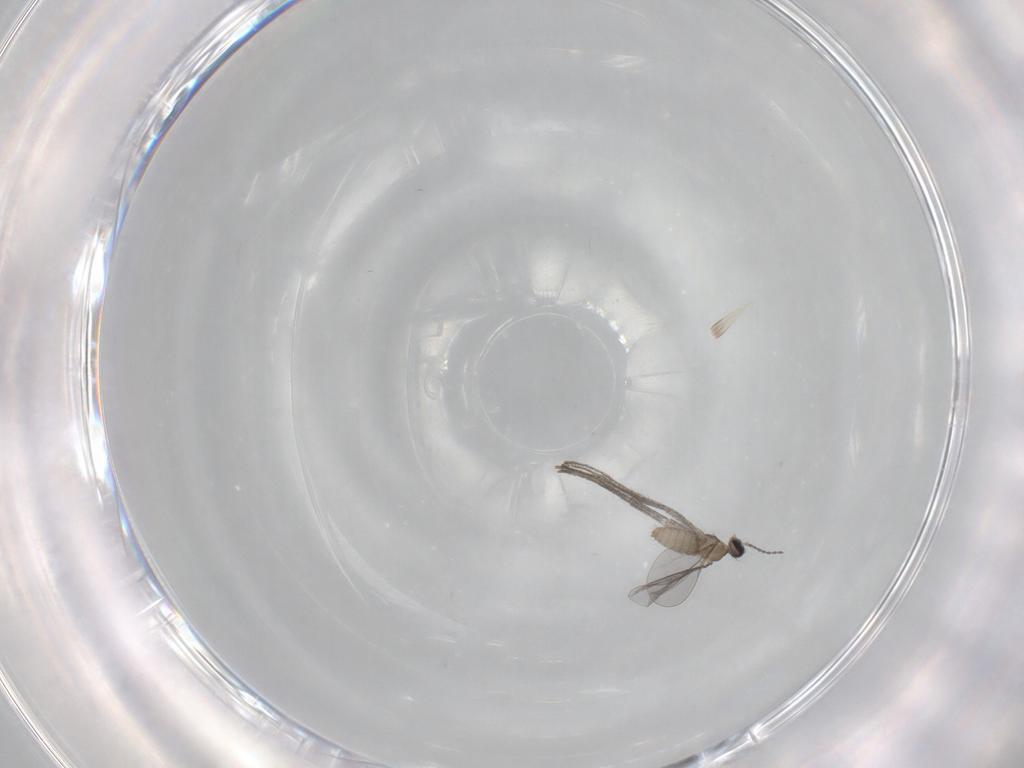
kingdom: Animalia
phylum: Arthropoda
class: Insecta
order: Diptera
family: Cecidomyiidae
